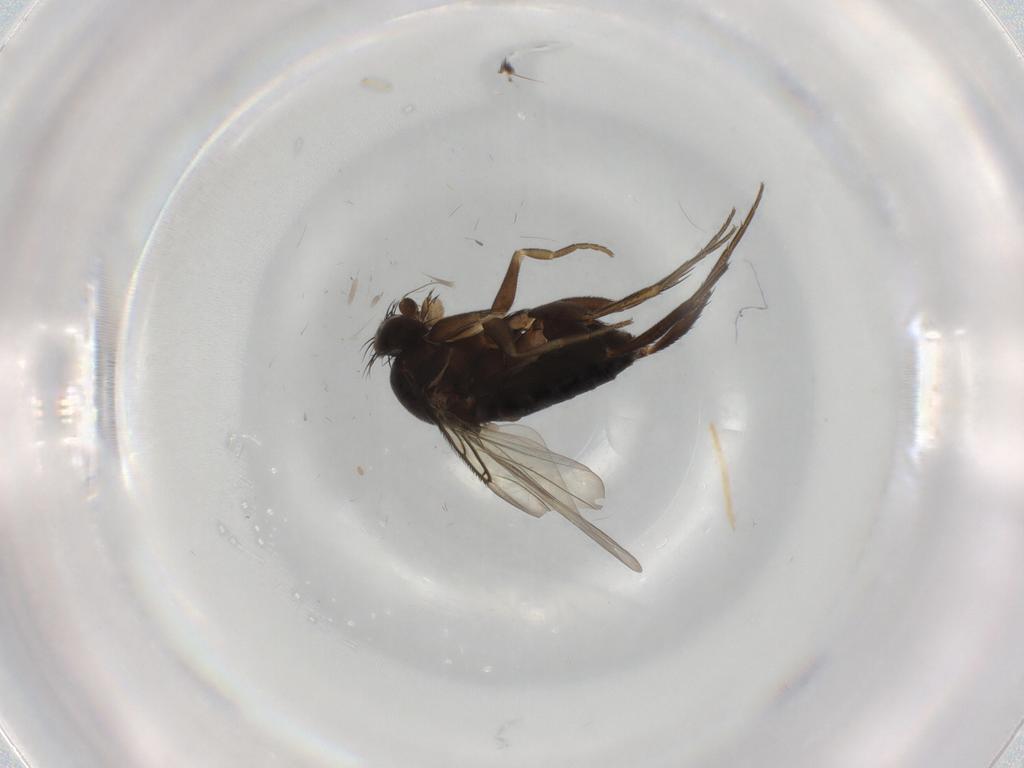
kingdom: Animalia
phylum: Arthropoda
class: Insecta
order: Diptera
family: Phoridae
